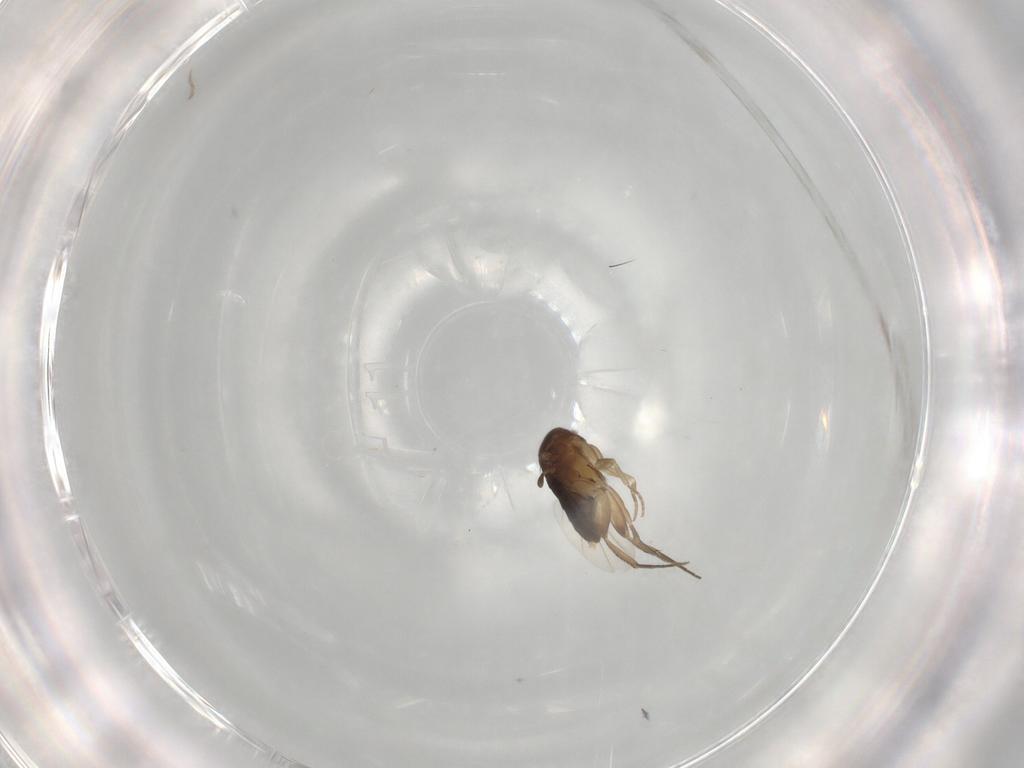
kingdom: Animalia
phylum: Arthropoda
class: Insecta
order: Diptera
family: Phoridae
